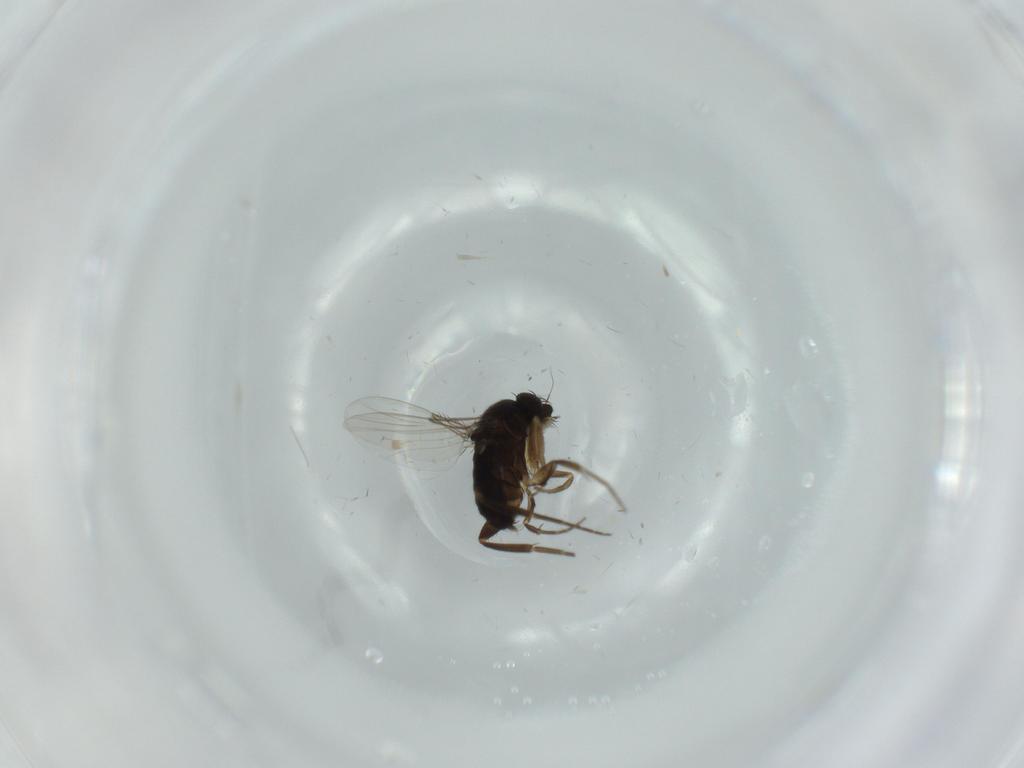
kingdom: Animalia
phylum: Arthropoda
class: Insecta
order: Diptera
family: Phoridae
